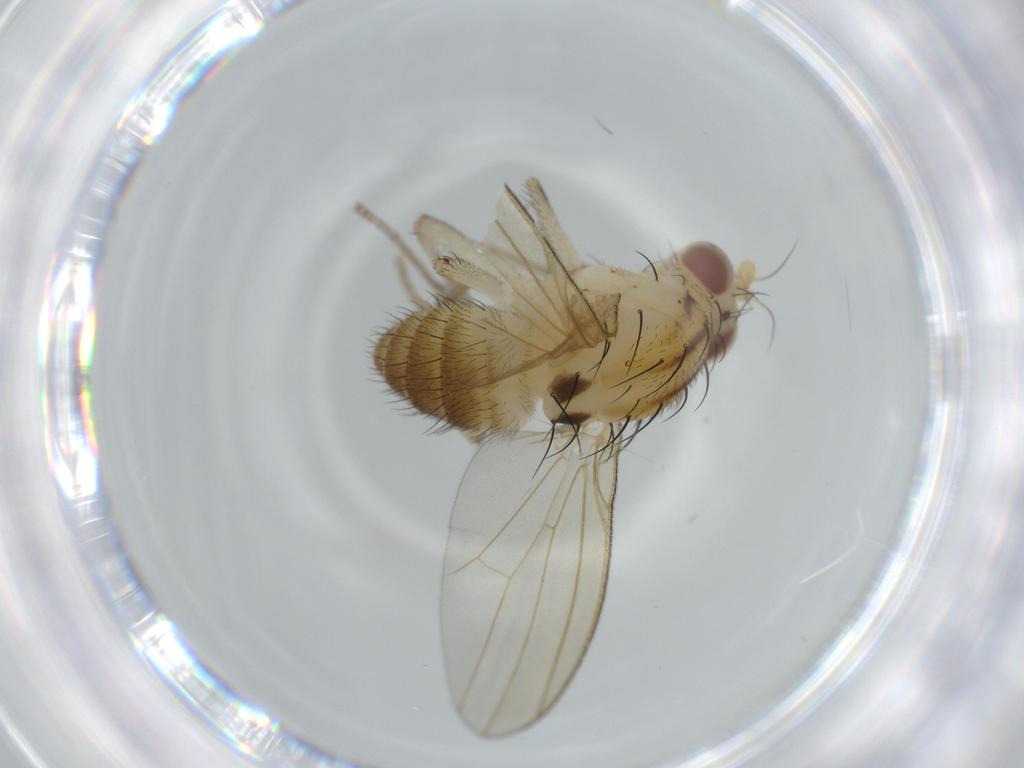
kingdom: Animalia
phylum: Arthropoda
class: Insecta
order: Diptera
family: Lauxaniidae
